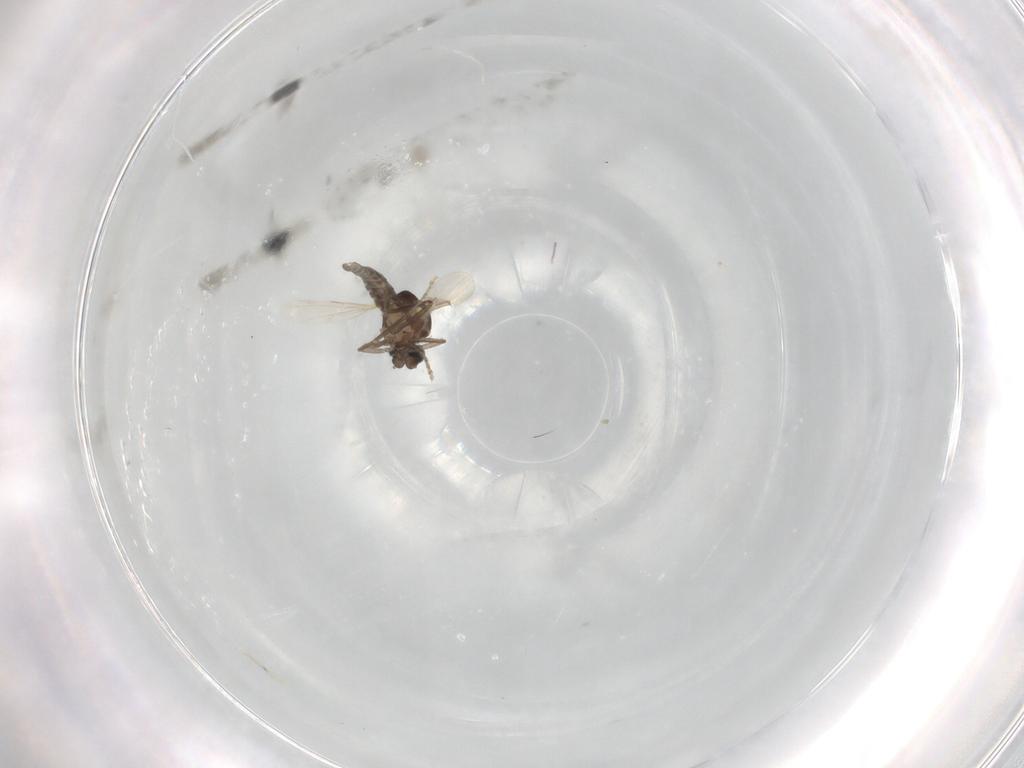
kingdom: Animalia
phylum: Arthropoda
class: Insecta
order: Diptera
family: Ceratopogonidae
